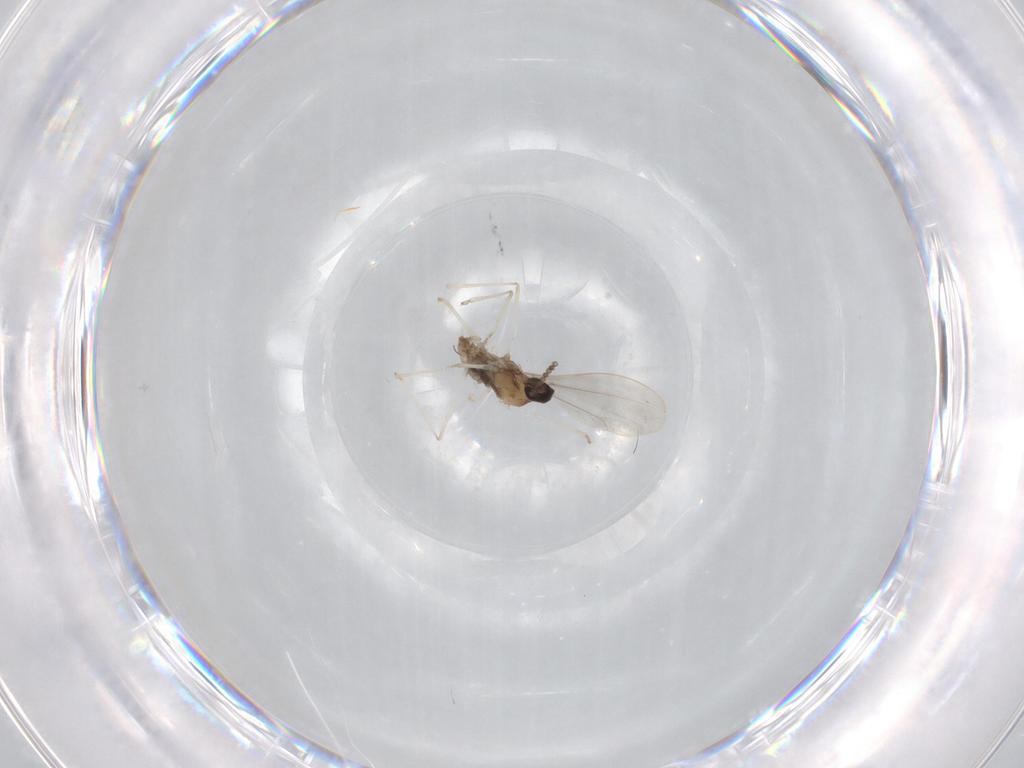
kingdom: Animalia
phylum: Arthropoda
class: Insecta
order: Diptera
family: Cecidomyiidae
